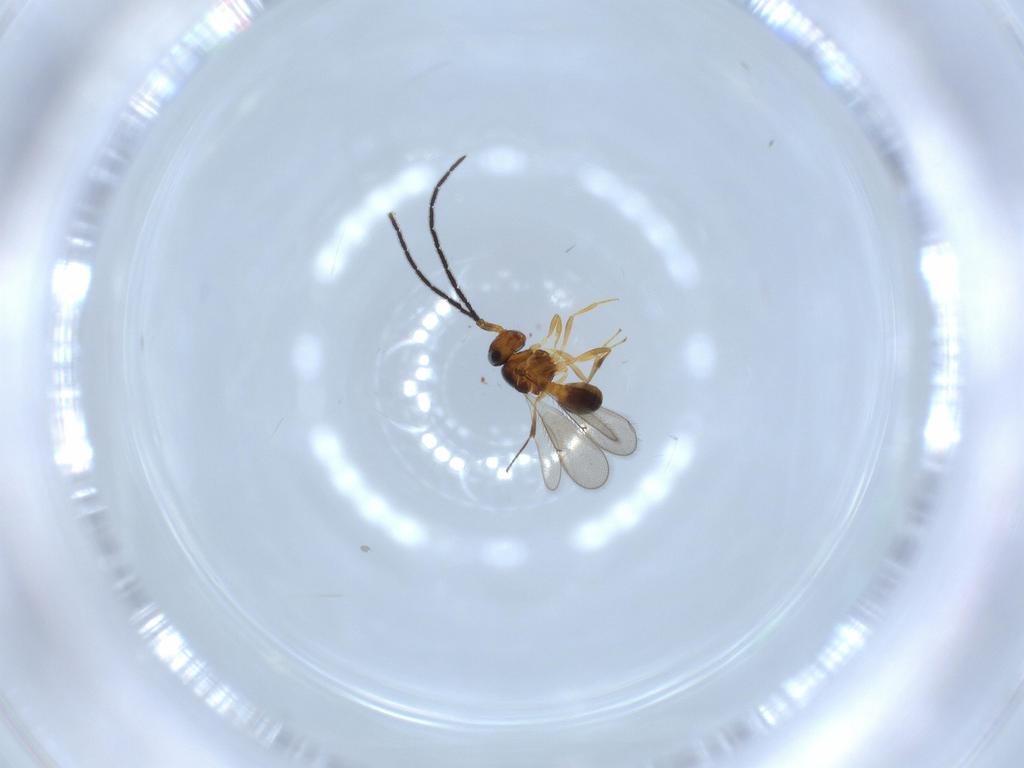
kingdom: Animalia
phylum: Arthropoda
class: Insecta
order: Hymenoptera
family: Scelionidae
